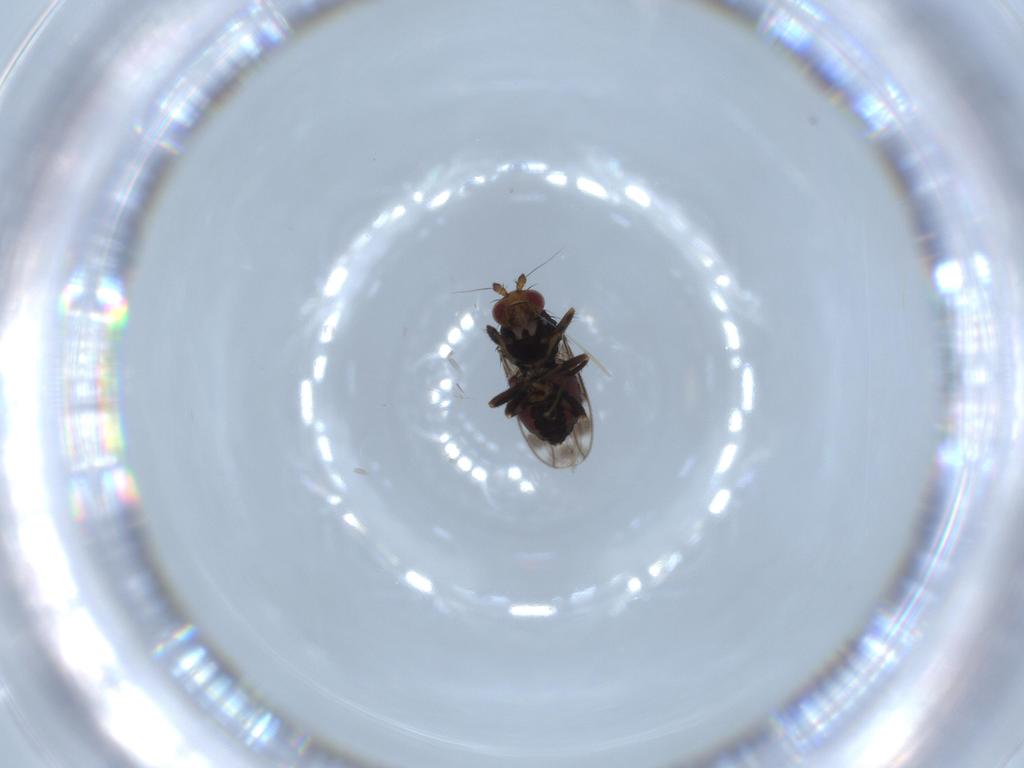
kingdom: Animalia
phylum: Arthropoda
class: Insecta
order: Diptera
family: Sphaeroceridae
